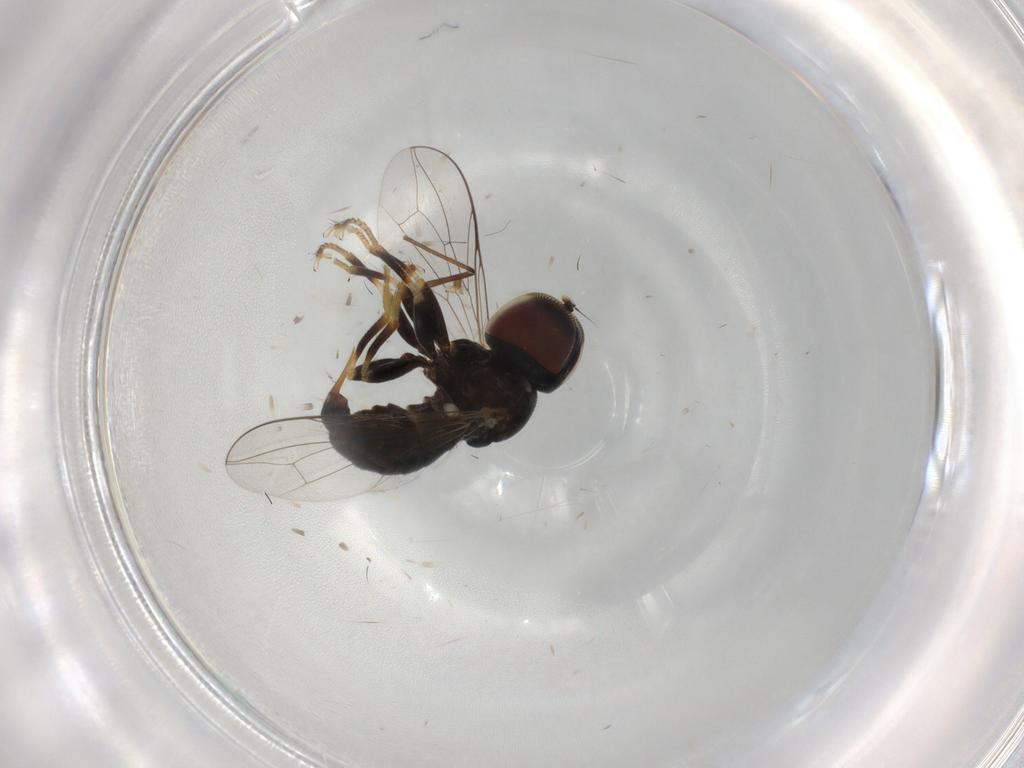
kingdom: Animalia
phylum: Arthropoda
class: Insecta
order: Diptera
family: Pipunculidae
